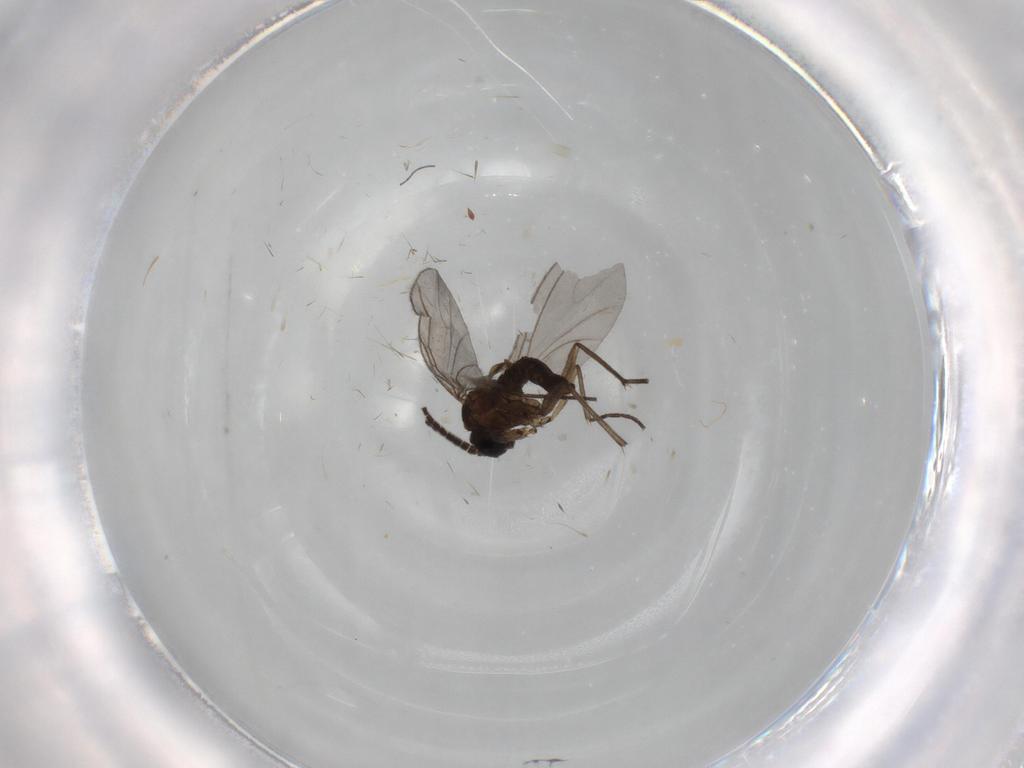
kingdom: Animalia
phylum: Arthropoda
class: Insecta
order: Diptera
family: Sciaridae
